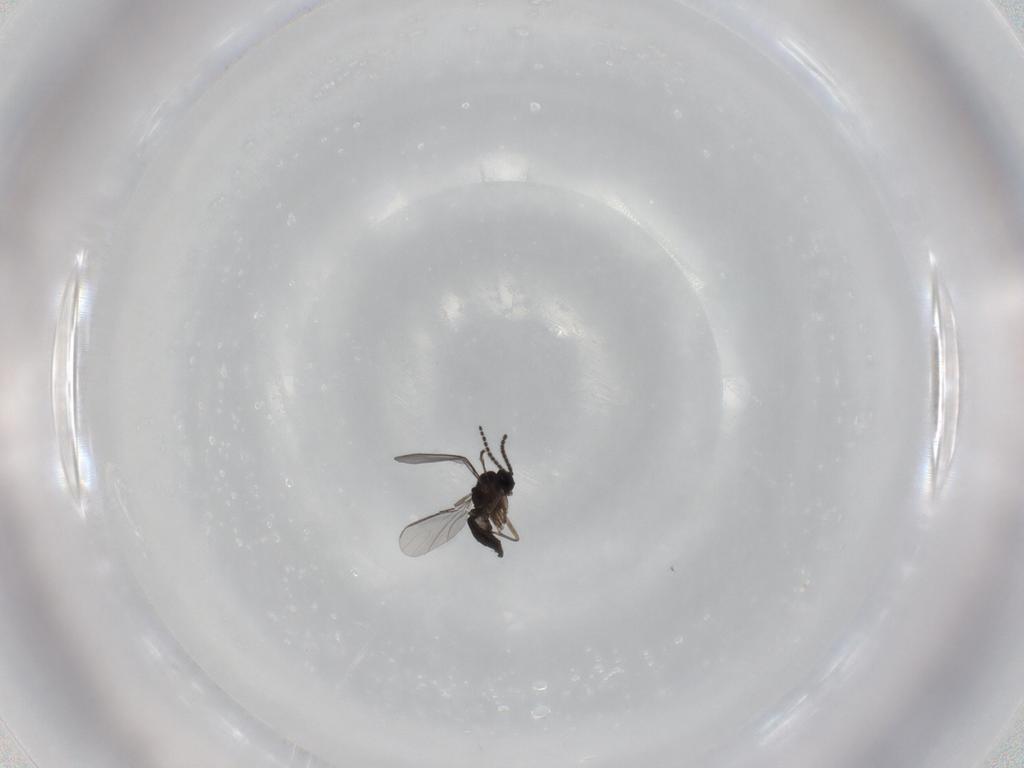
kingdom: Animalia
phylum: Arthropoda
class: Insecta
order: Diptera
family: Sciaridae
